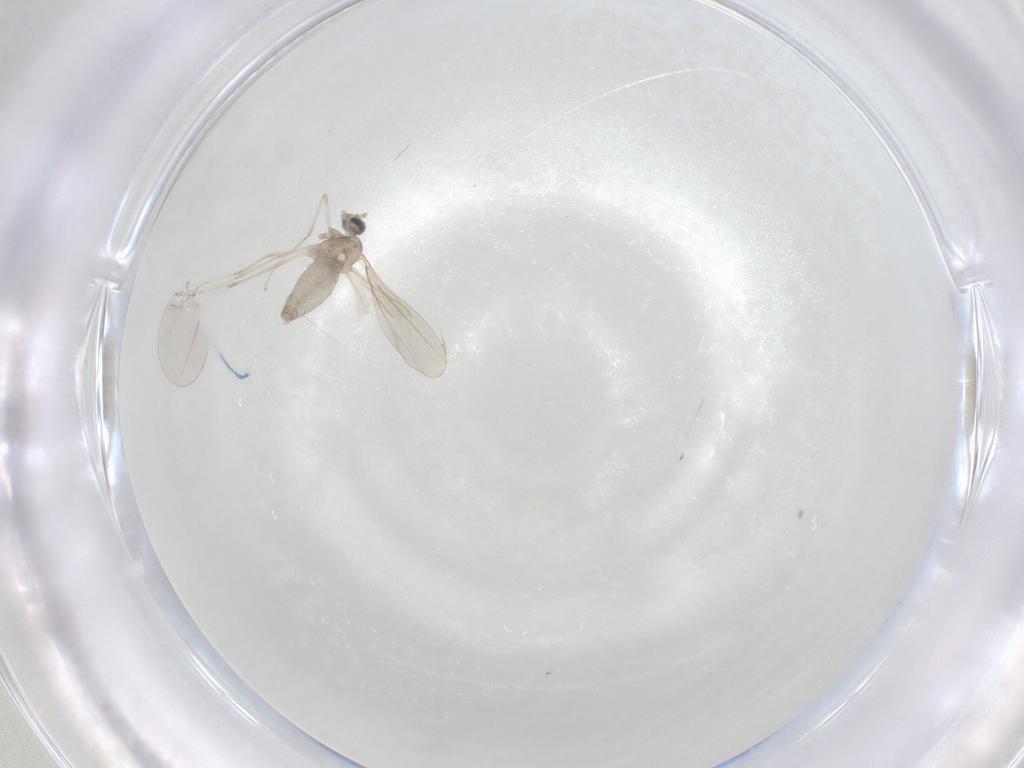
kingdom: Animalia
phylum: Arthropoda
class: Insecta
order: Diptera
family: Cecidomyiidae
